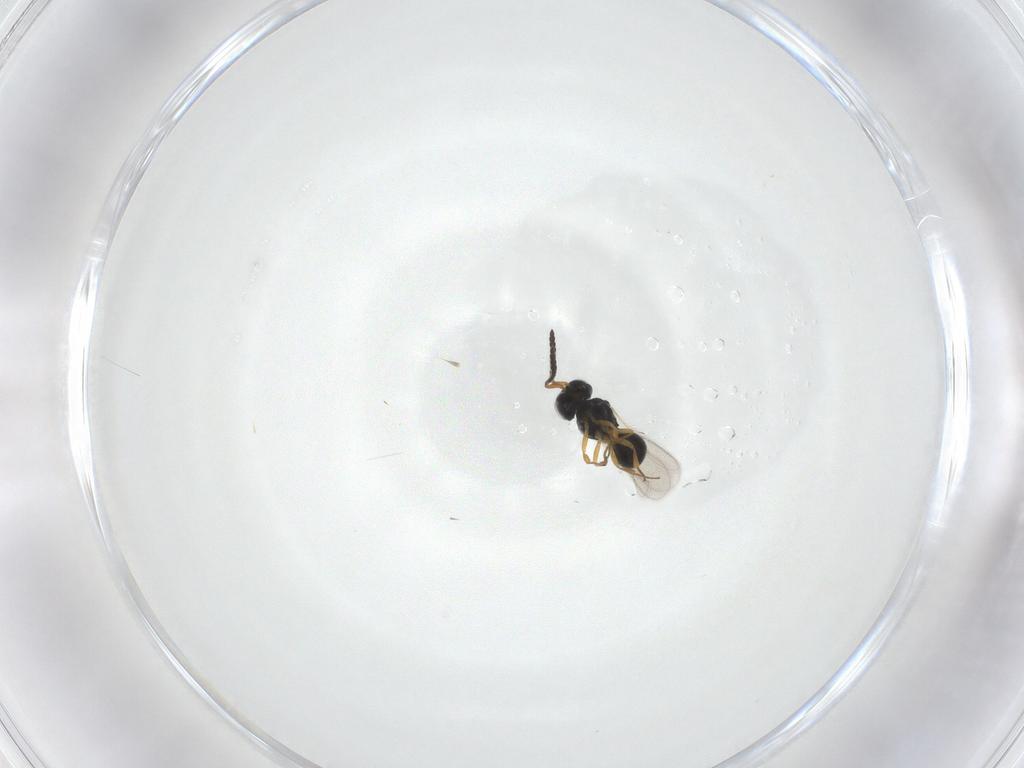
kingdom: Animalia
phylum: Arthropoda
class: Insecta
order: Hymenoptera
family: Scelionidae
